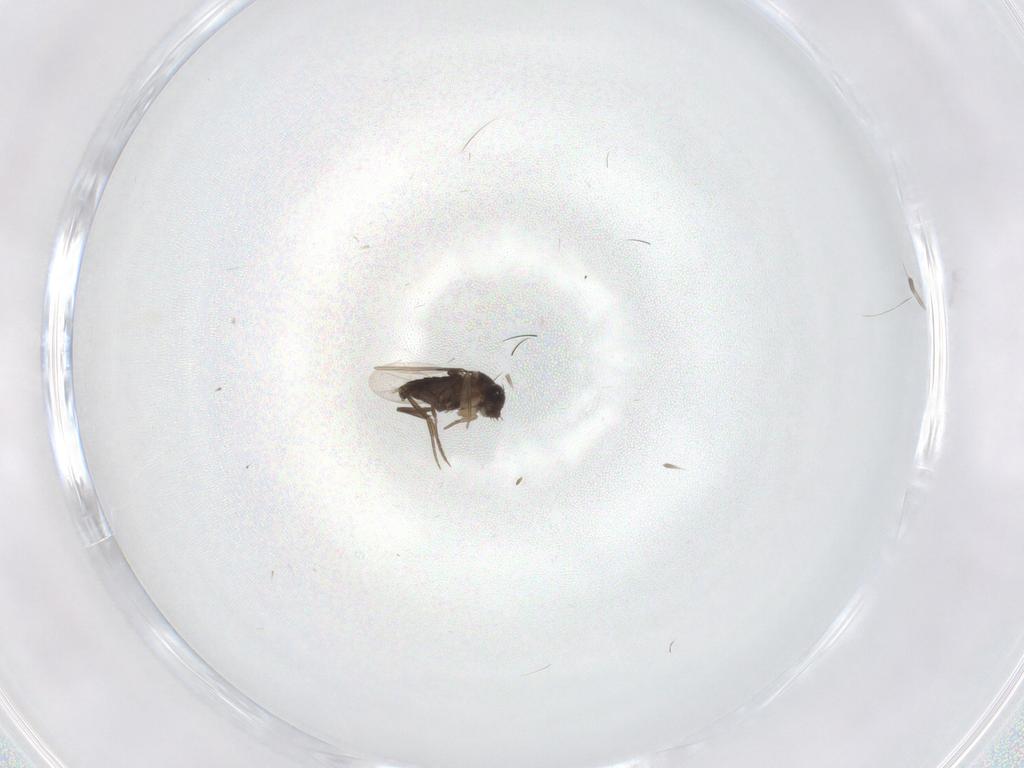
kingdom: Animalia
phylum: Arthropoda
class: Insecta
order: Diptera
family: Phoridae
